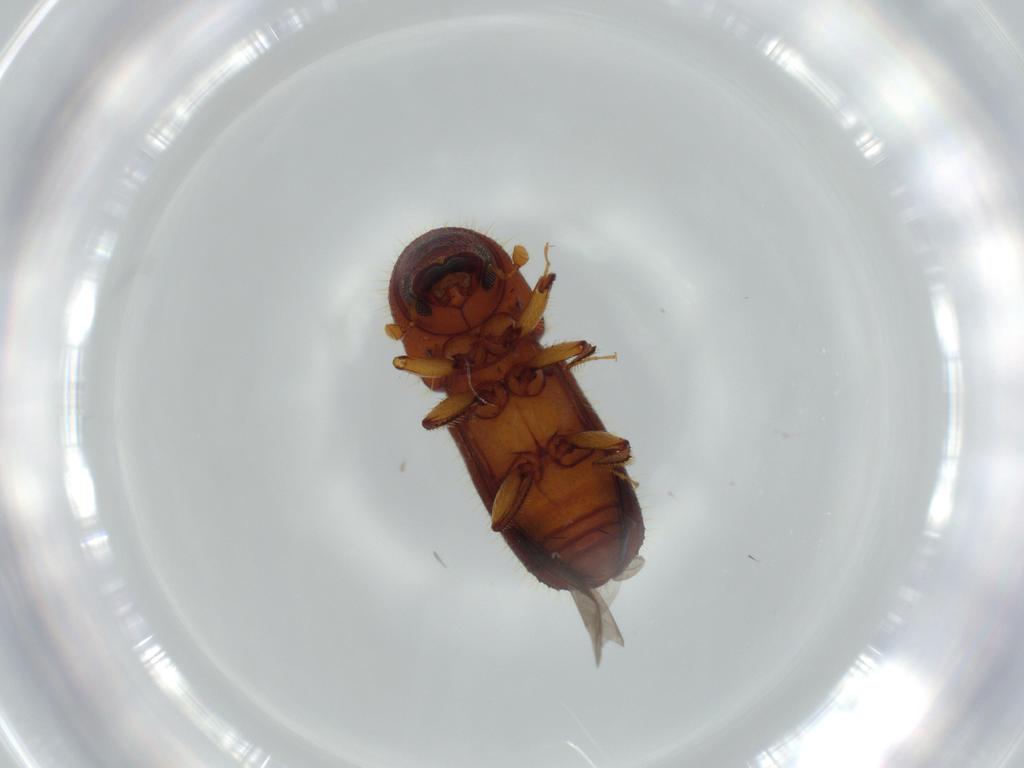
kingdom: Animalia
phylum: Arthropoda
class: Insecta
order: Coleoptera
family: Curculionidae
